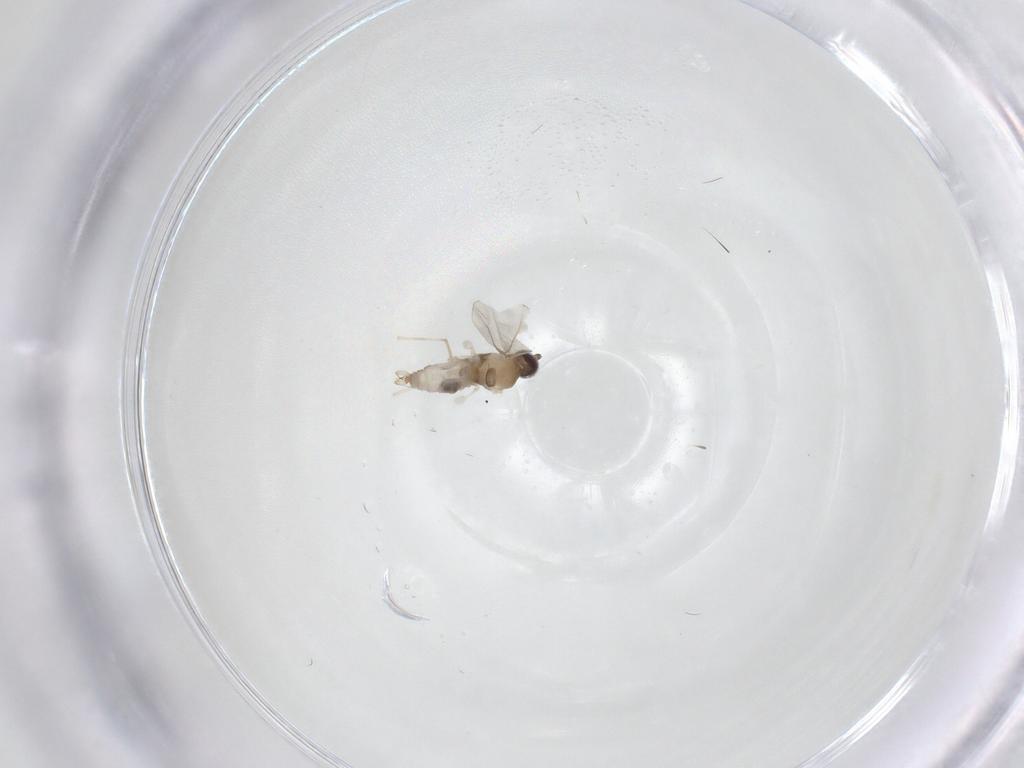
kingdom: Animalia
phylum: Arthropoda
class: Insecta
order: Diptera
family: Cecidomyiidae
